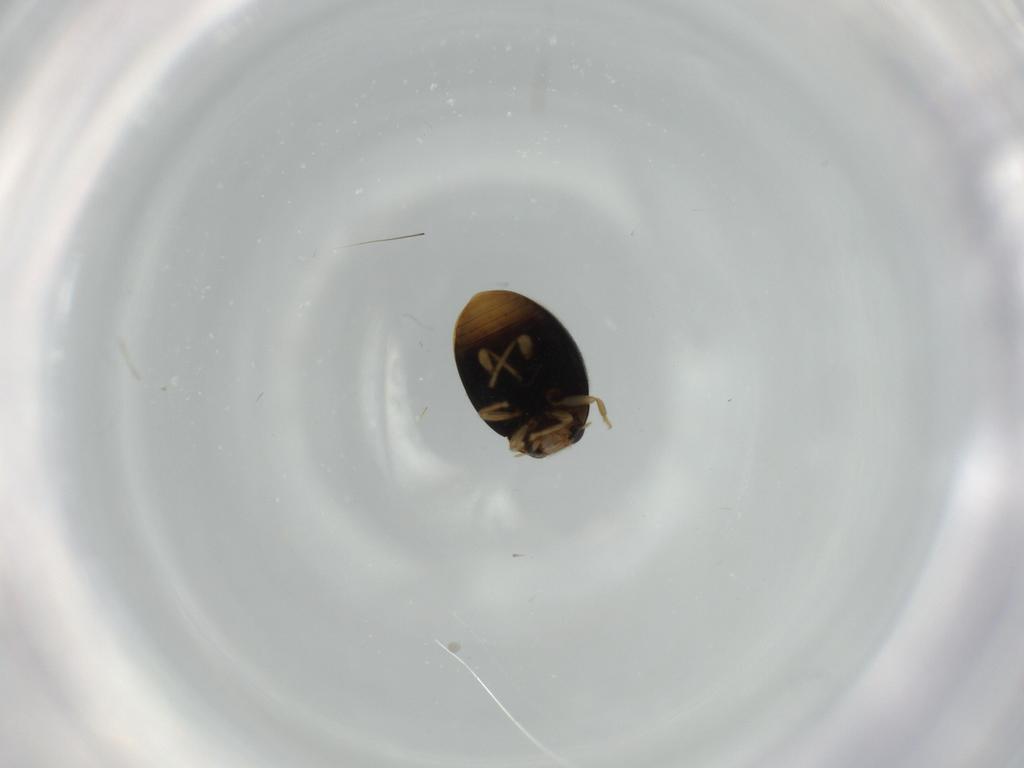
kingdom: Animalia
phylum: Arthropoda
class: Insecta
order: Coleoptera
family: Coccinellidae
